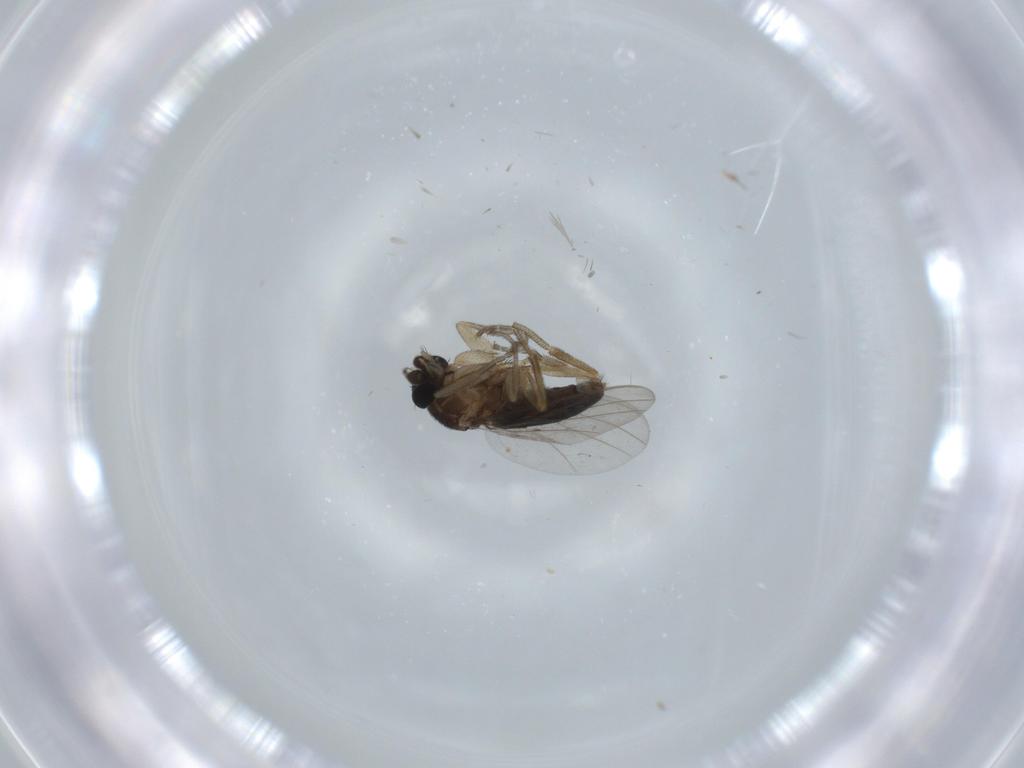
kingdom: Animalia
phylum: Arthropoda
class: Insecta
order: Diptera
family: Phoridae
